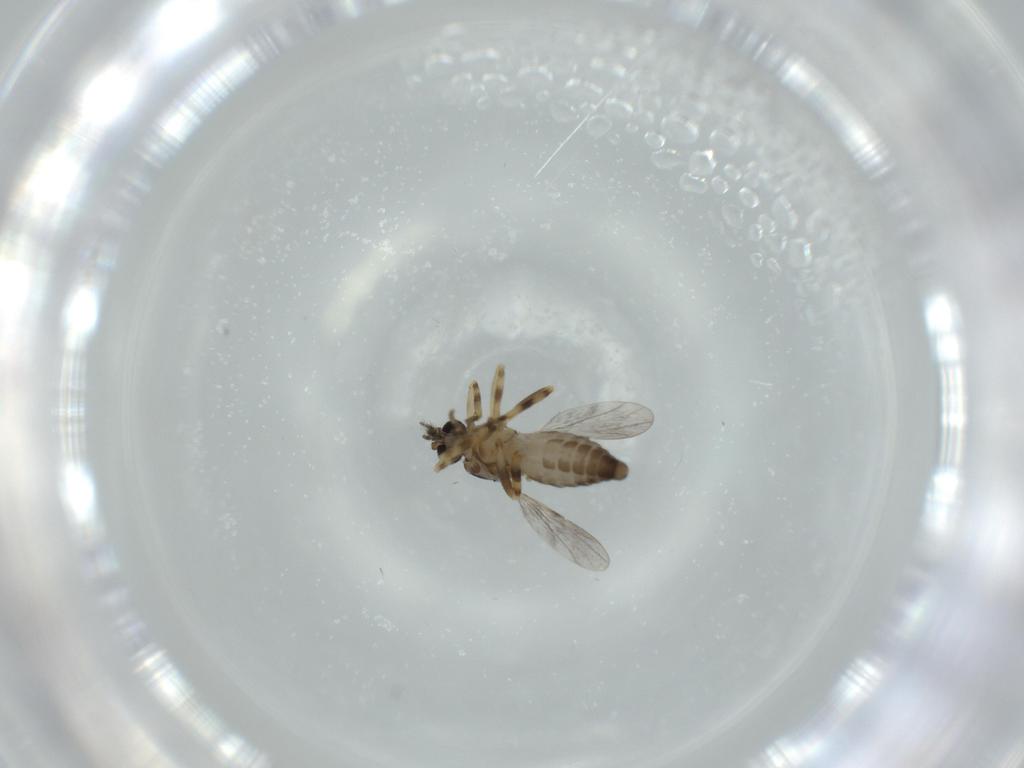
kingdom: Animalia
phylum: Arthropoda
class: Insecta
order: Diptera
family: Ceratopogonidae
